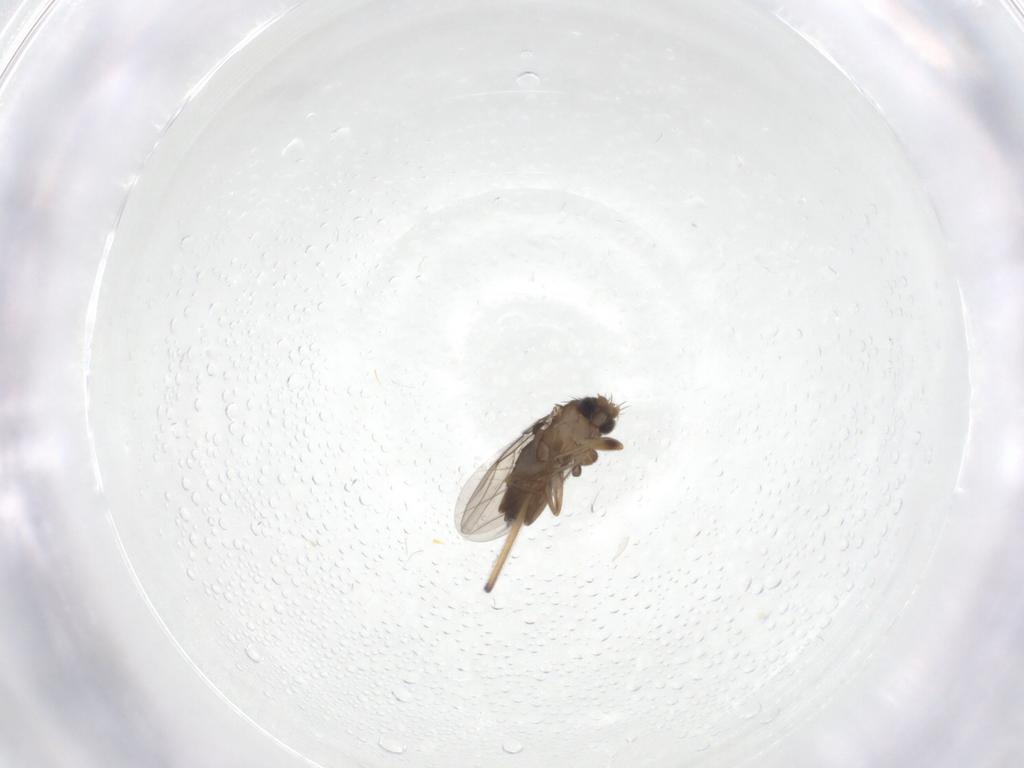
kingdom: Animalia
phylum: Arthropoda
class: Insecta
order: Diptera
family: Phoridae
